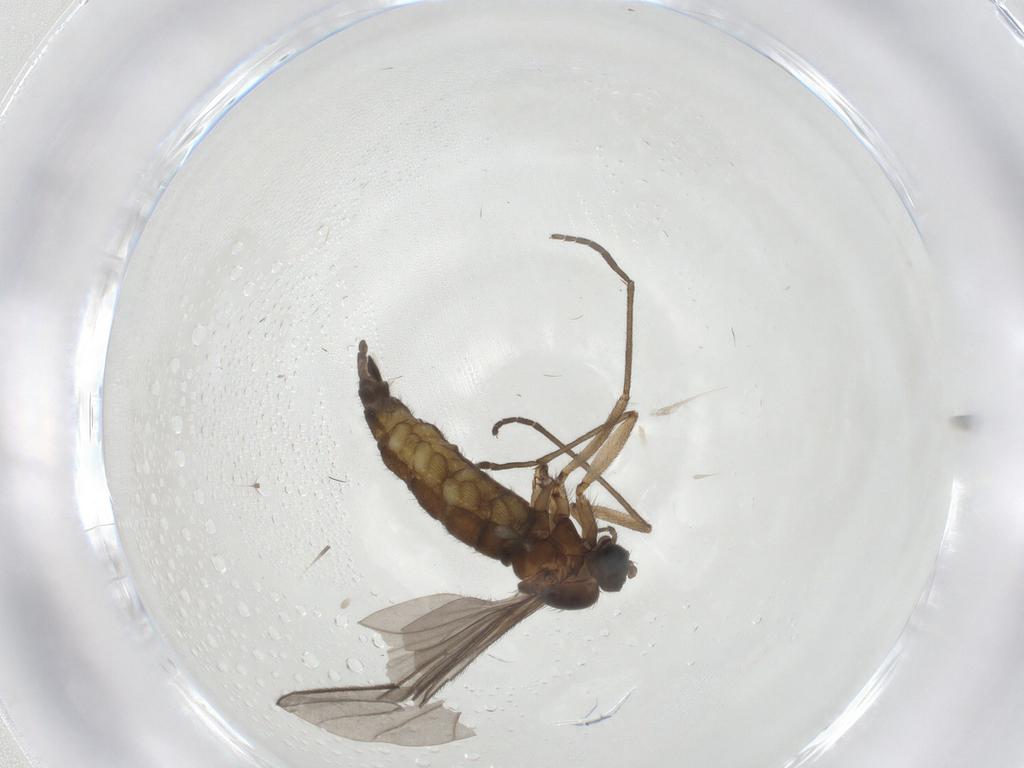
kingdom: Animalia
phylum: Arthropoda
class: Insecta
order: Diptera
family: Sciaridae
